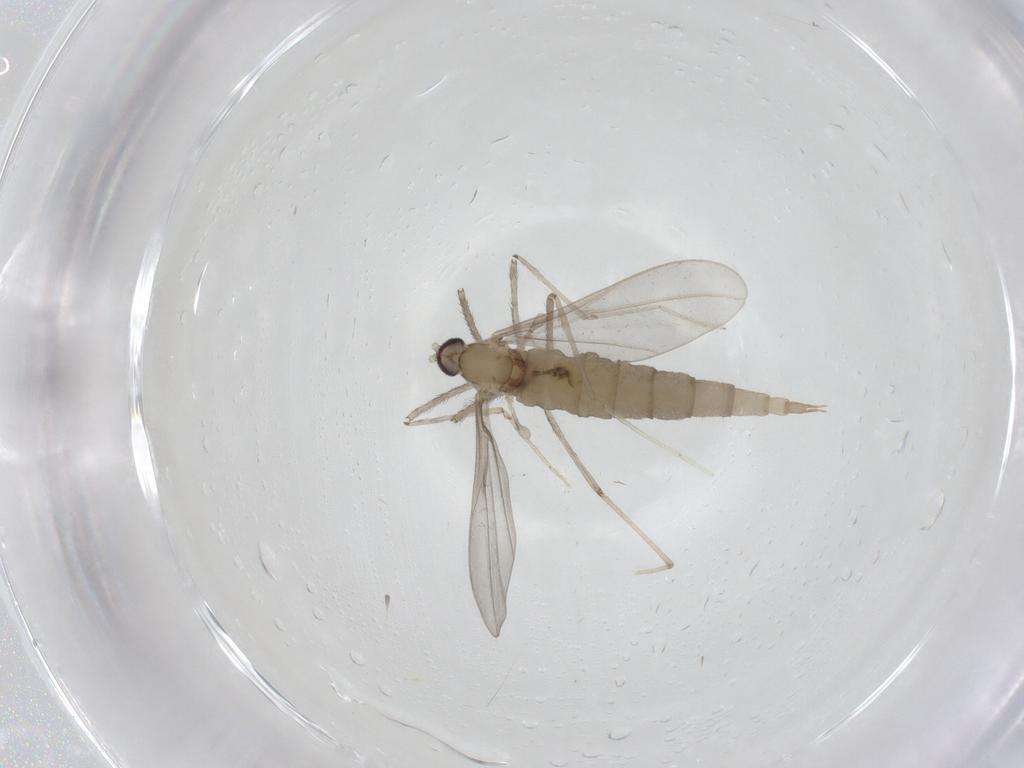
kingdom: Animalia
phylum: Arthropoda
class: Insecta
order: Diptera
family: Cecidomyiidae
